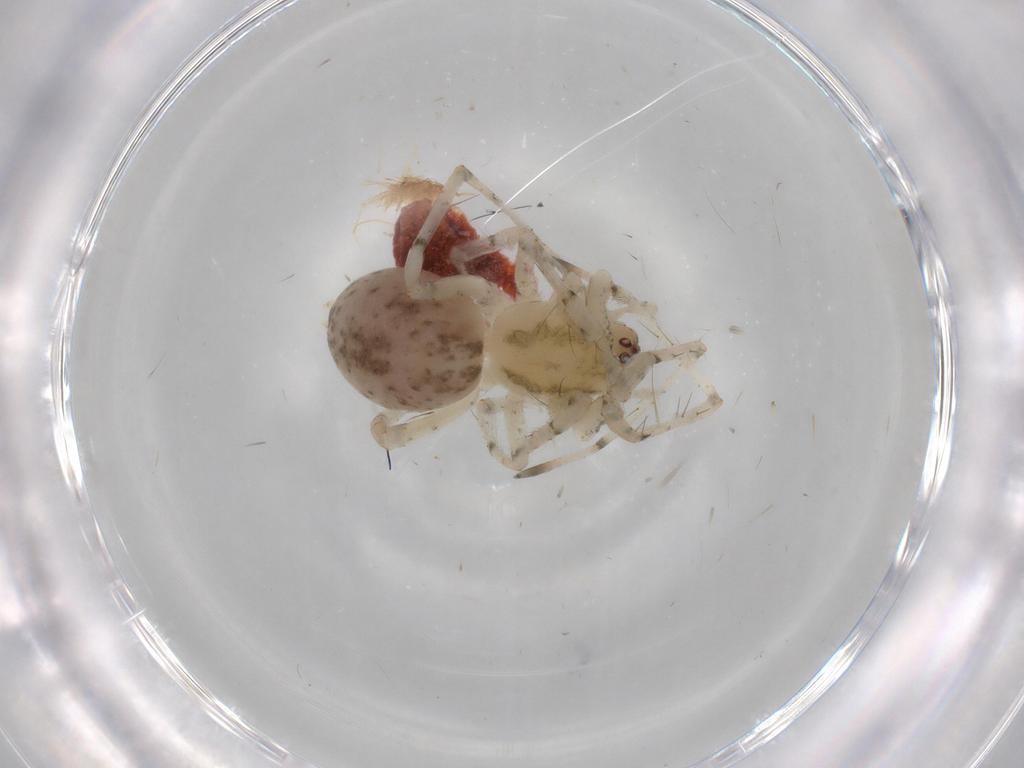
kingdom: Animalia
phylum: Arthropoda
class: Arachnida
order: Araneae
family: Anyphaenidae
